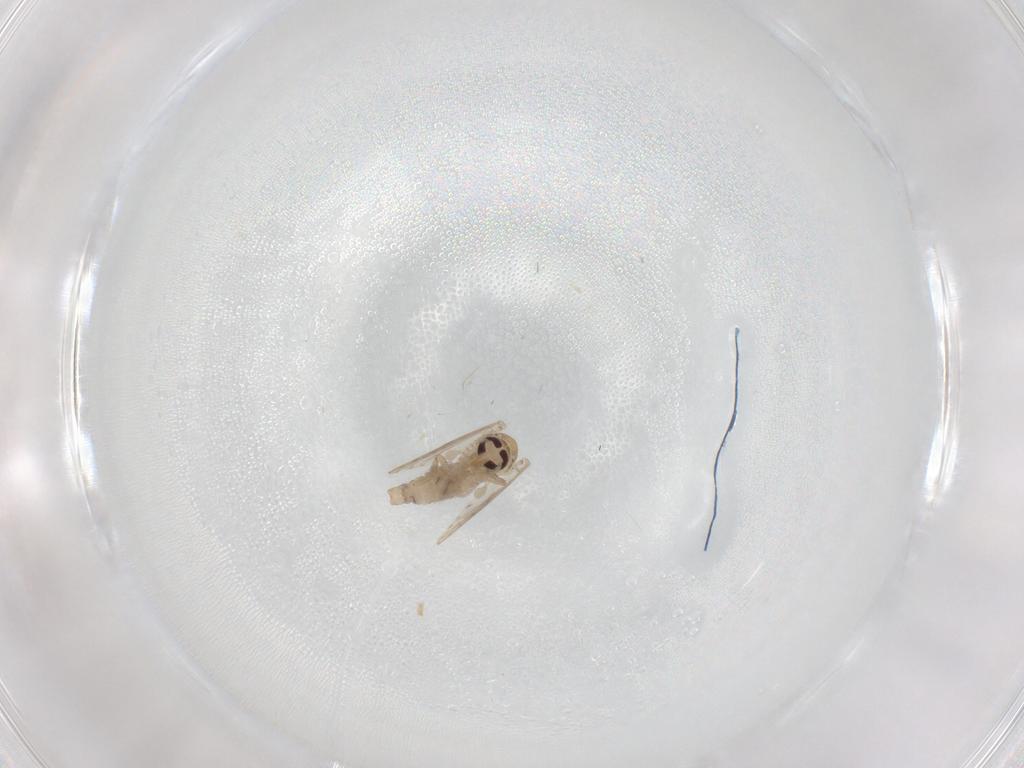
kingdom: Animalia
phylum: Arthropoda
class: Insecta
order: Diptera
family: Psychodidae
